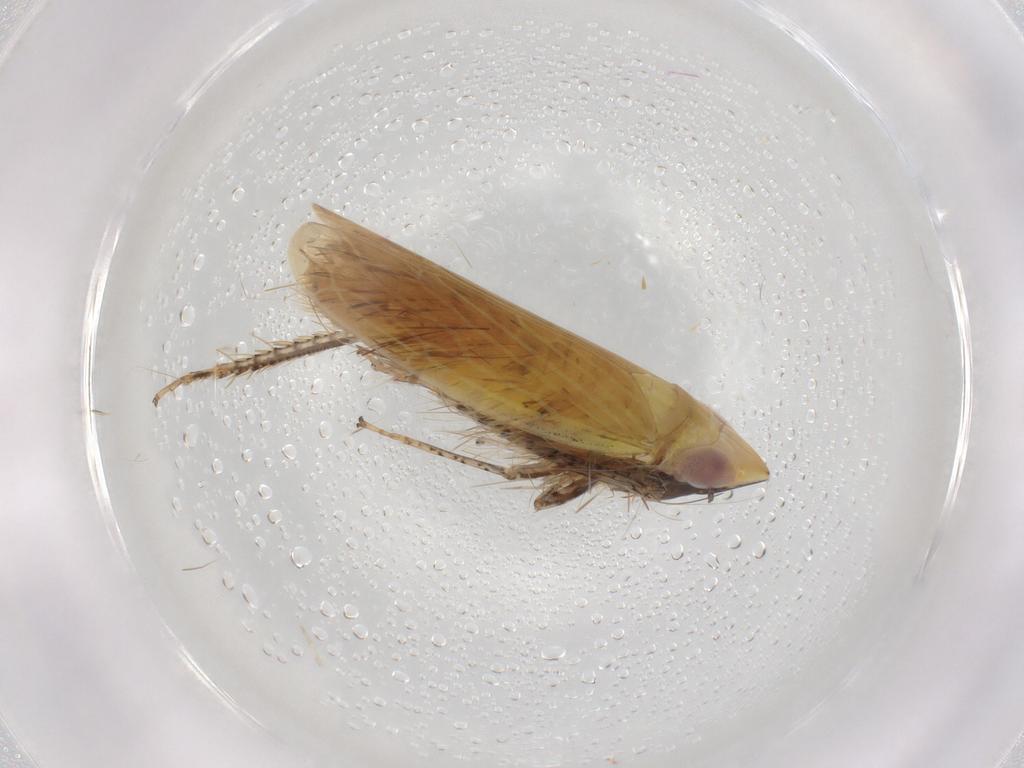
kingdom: Animalia
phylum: Arthropoda
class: Insecta
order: Hemiptera
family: Cicadellidae
